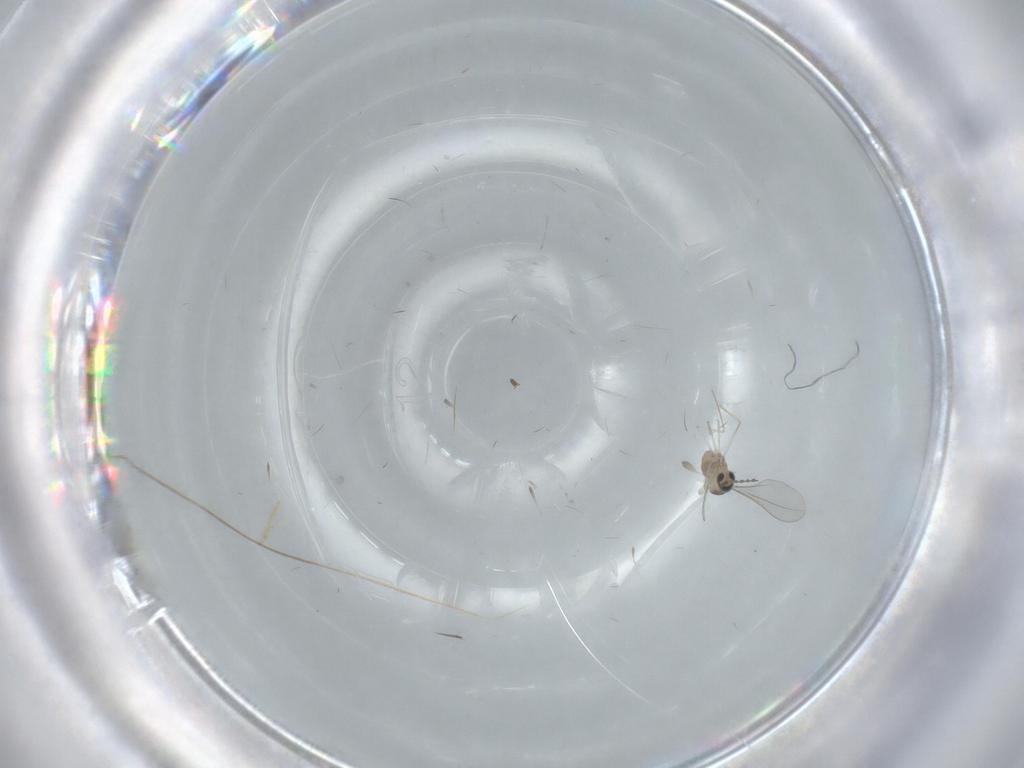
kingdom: Animalia
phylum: Arthropoda
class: Insecta
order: Diptera
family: Cecidomyiidae
